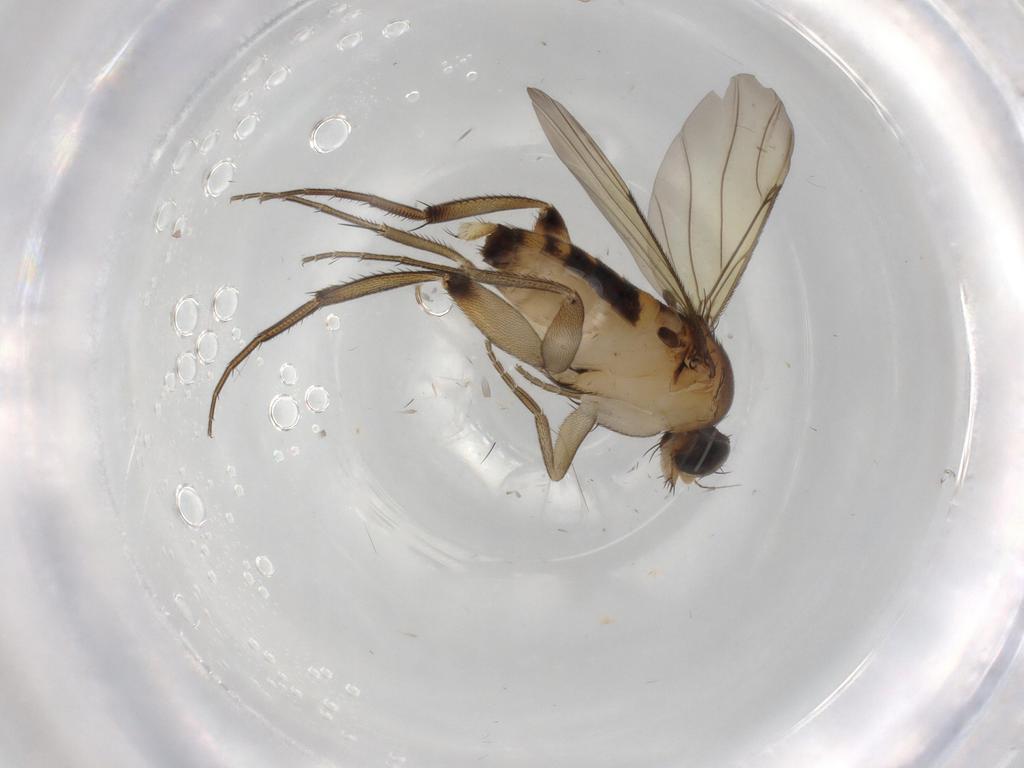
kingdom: Animalia
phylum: Arthropoda
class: Insecta
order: Diptera
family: Phoridae
